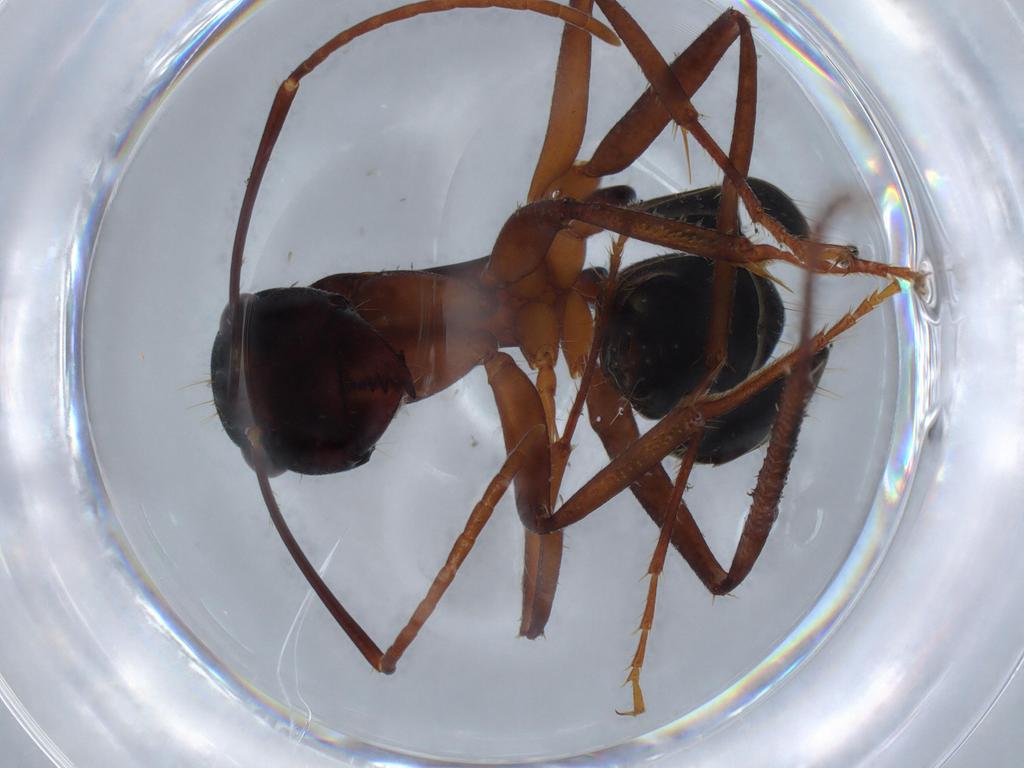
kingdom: Animalia
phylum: Arthropoda
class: Insecta
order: Hymenoptera
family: Formicidae
